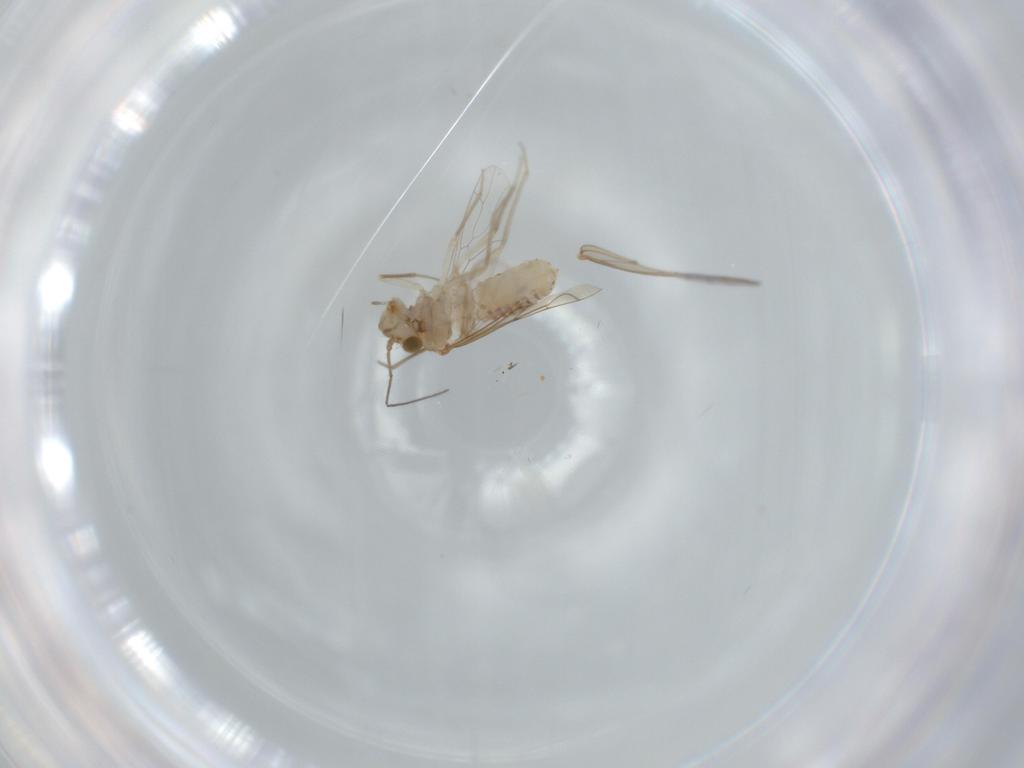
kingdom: Animalia
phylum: Arthropoda
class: Insecta
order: Psocodea
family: Lachesillidae
